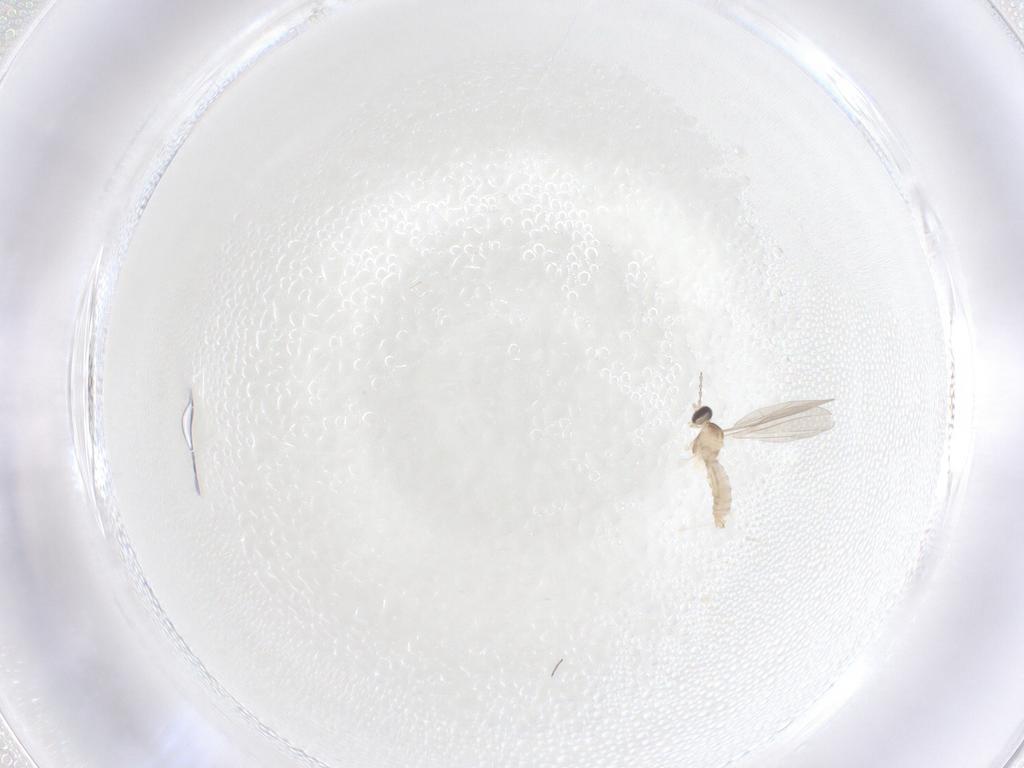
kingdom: Animalia
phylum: Arthropoda
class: Insecta
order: Diptera
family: Cecidomyiidae
